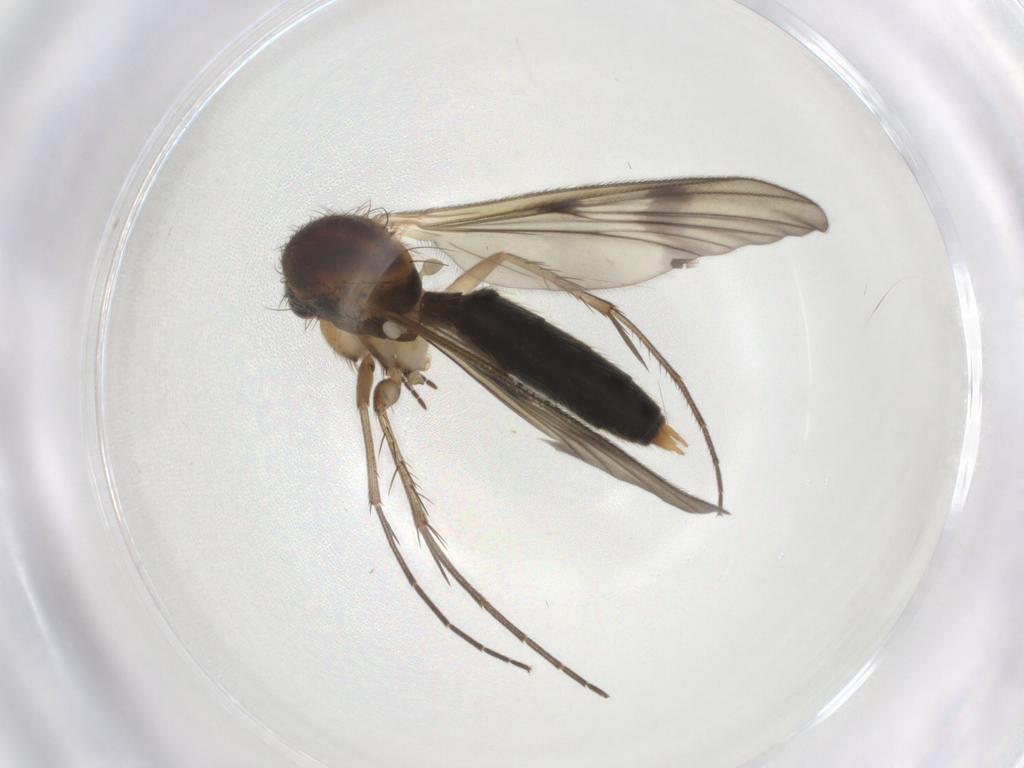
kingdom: Animalia
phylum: Arthropoda
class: Insecta
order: Diptera
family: Mycetophilidae
